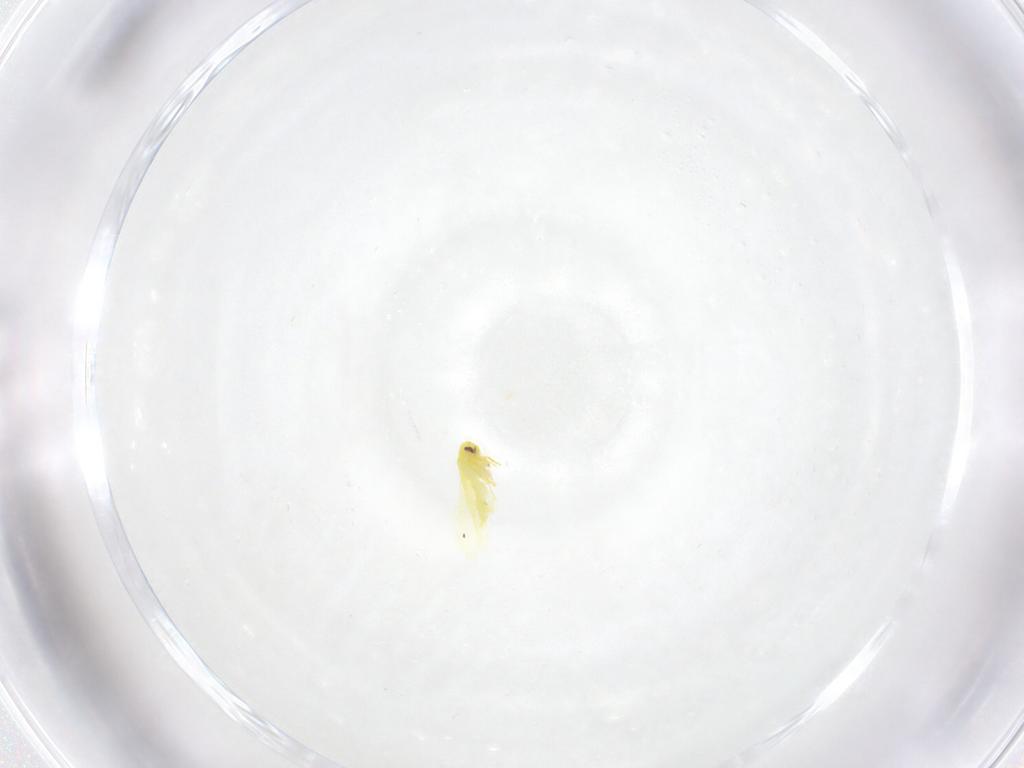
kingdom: Animalia
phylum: Arthropoda
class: Insecta
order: Hemiptera
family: Aleyrodidae
